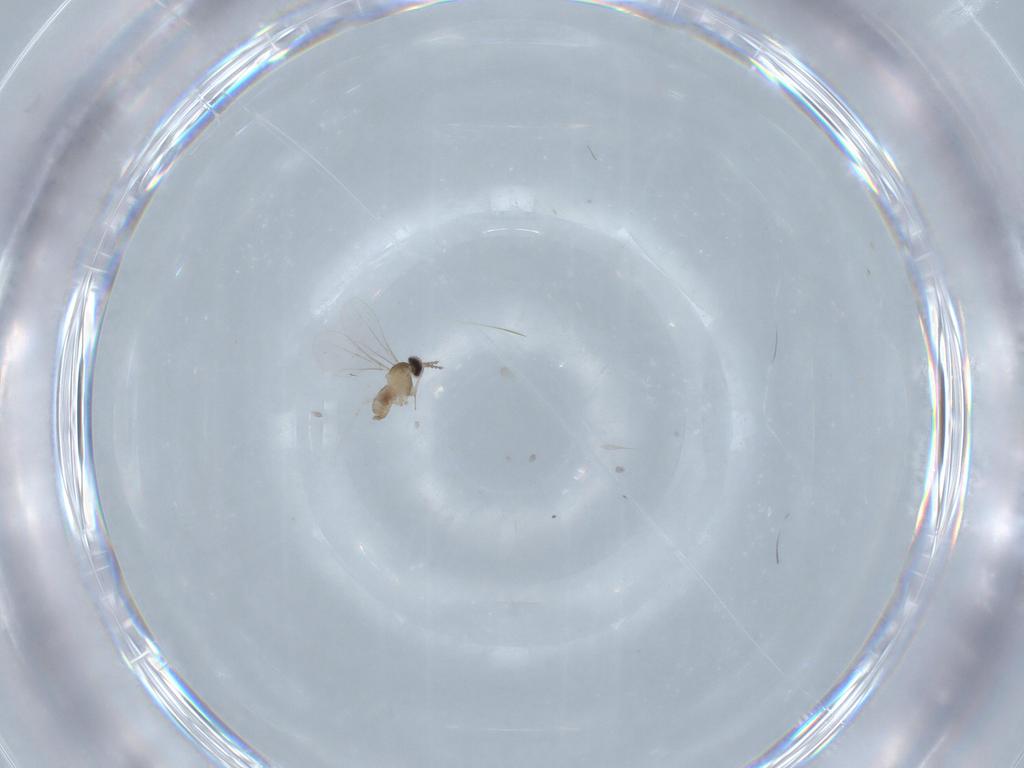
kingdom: Animalia
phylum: Arthropoda
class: Insecta
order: Diptera
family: Cecidomyiidae
